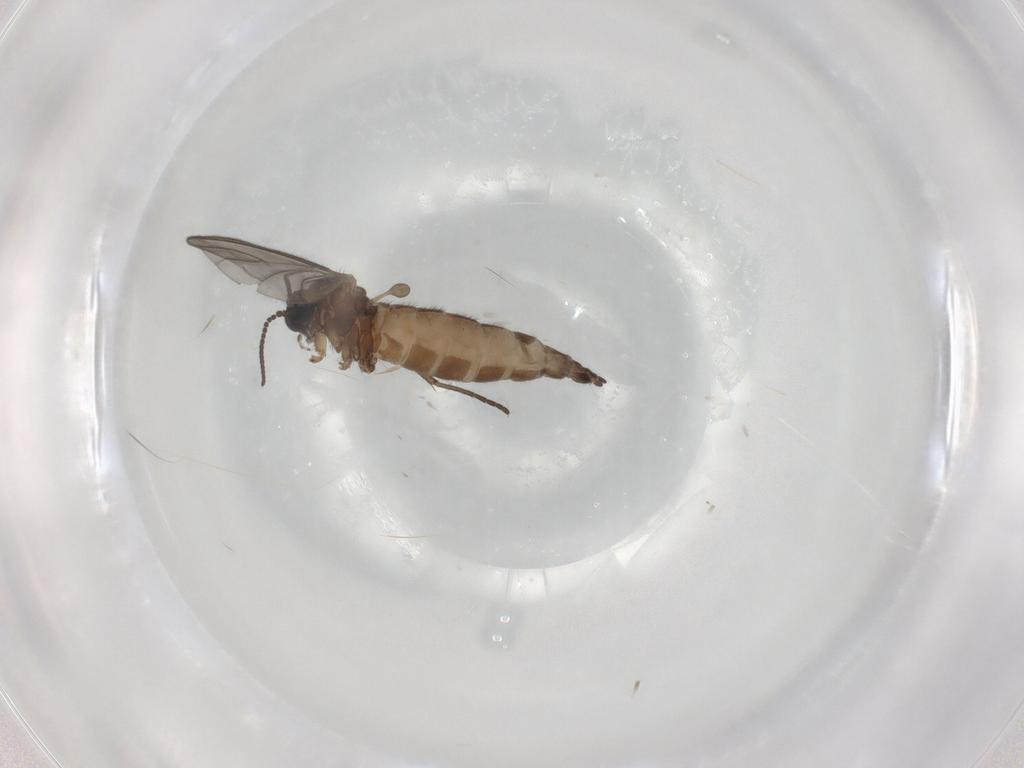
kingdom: Animalia
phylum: Arthropoda
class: Insecta
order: Diptera
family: Sciaridae
